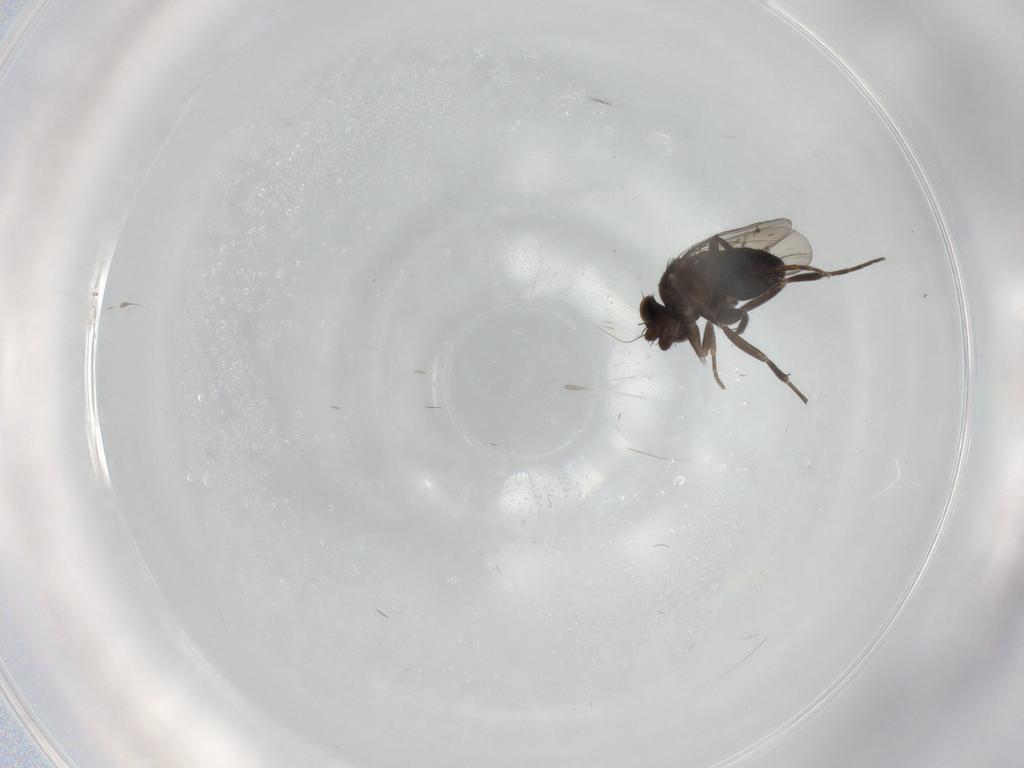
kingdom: Animalia
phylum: Arthropoda
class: Insecta
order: Diptera
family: Phoridae
